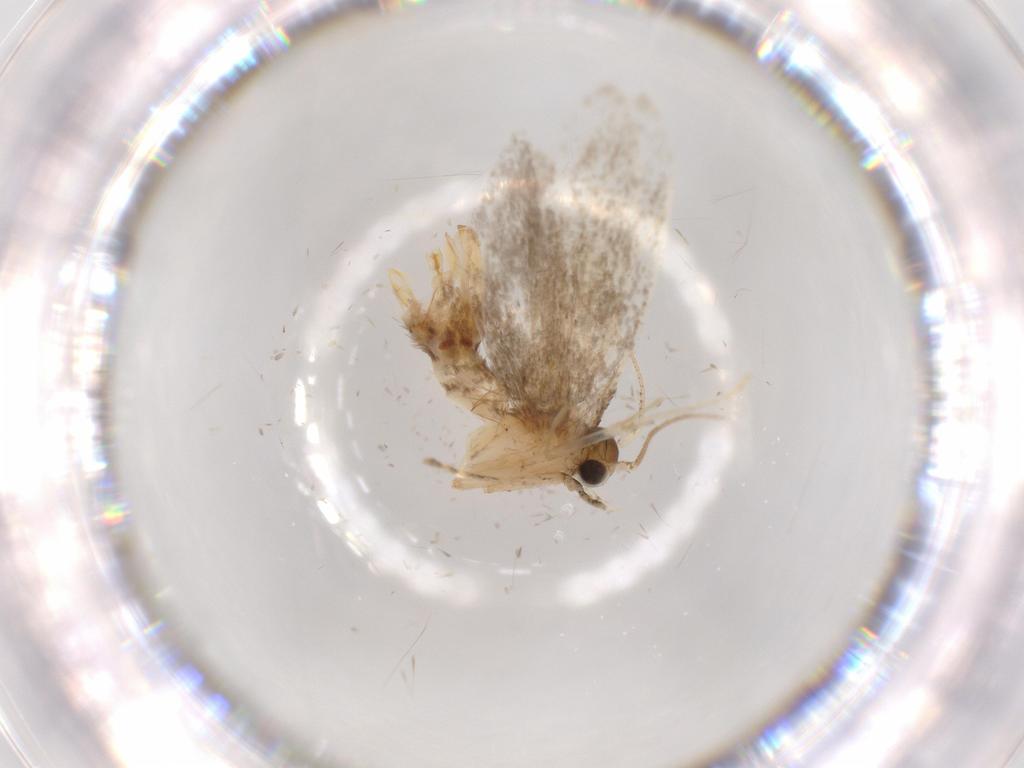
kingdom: Animalia
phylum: Arthropoda
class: Insecta
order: Lepidoptera
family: Tineidae
